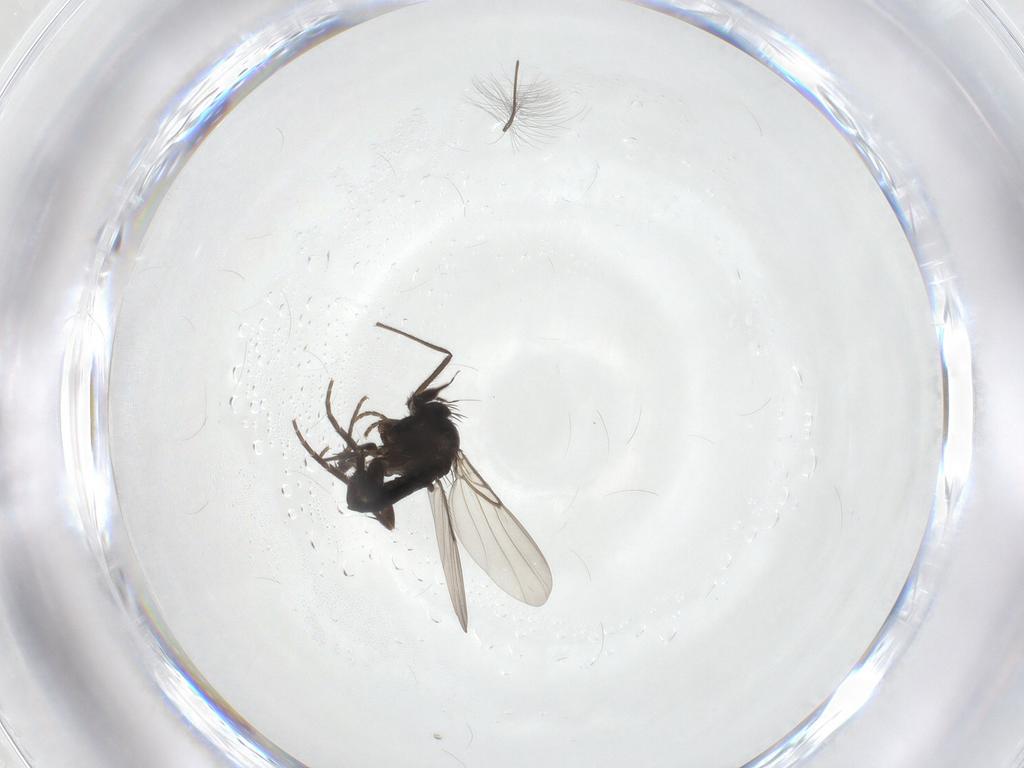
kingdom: Animalia
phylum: Arthropoda
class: Insecta
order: Diptera
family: Phoridae
